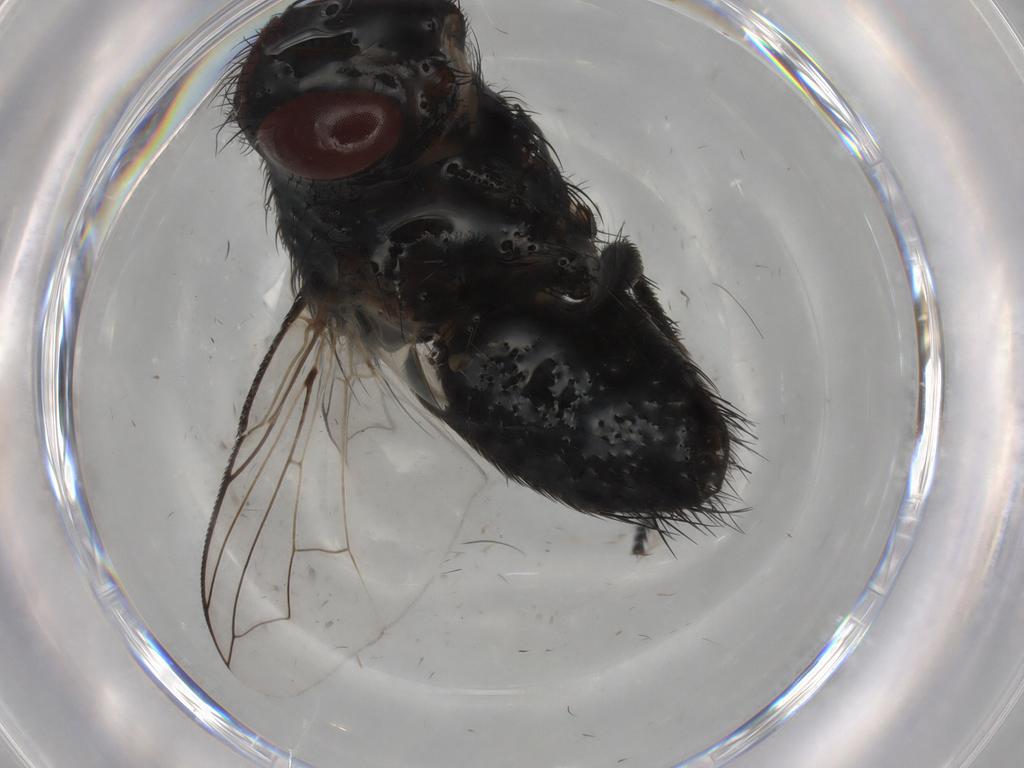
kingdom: Animalia
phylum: Arthropoda
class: Insecta
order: Diptera
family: Tachinidae
